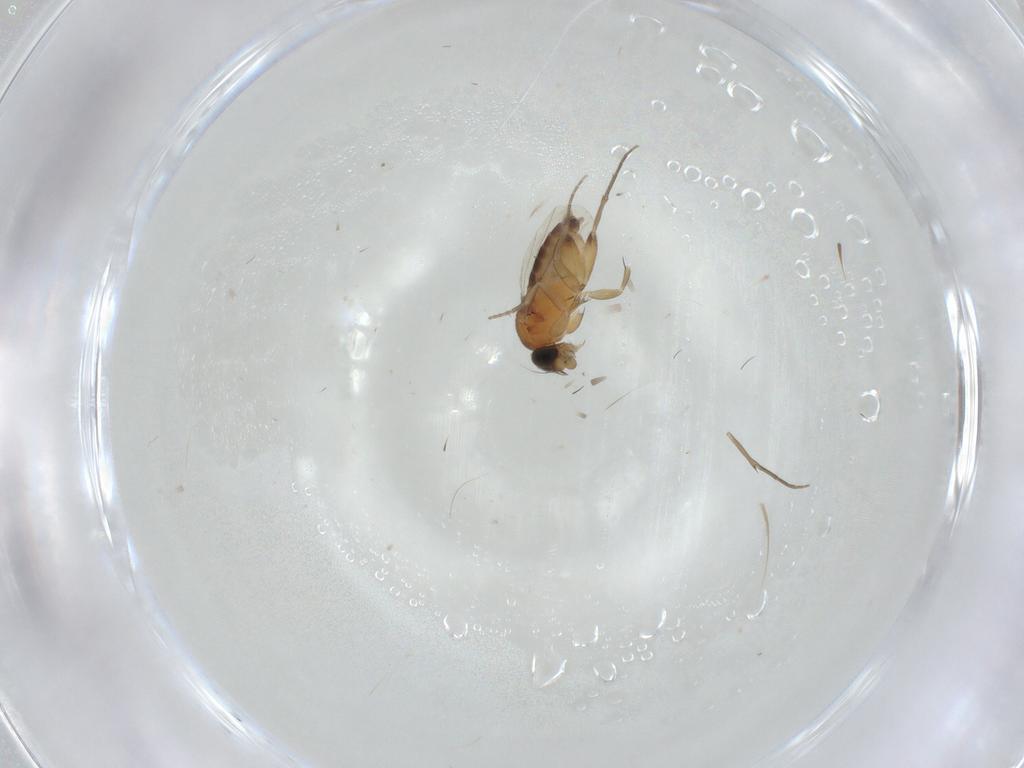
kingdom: Animalia
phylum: Arthropoda
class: Insecta
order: Diptera
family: Phoridae
